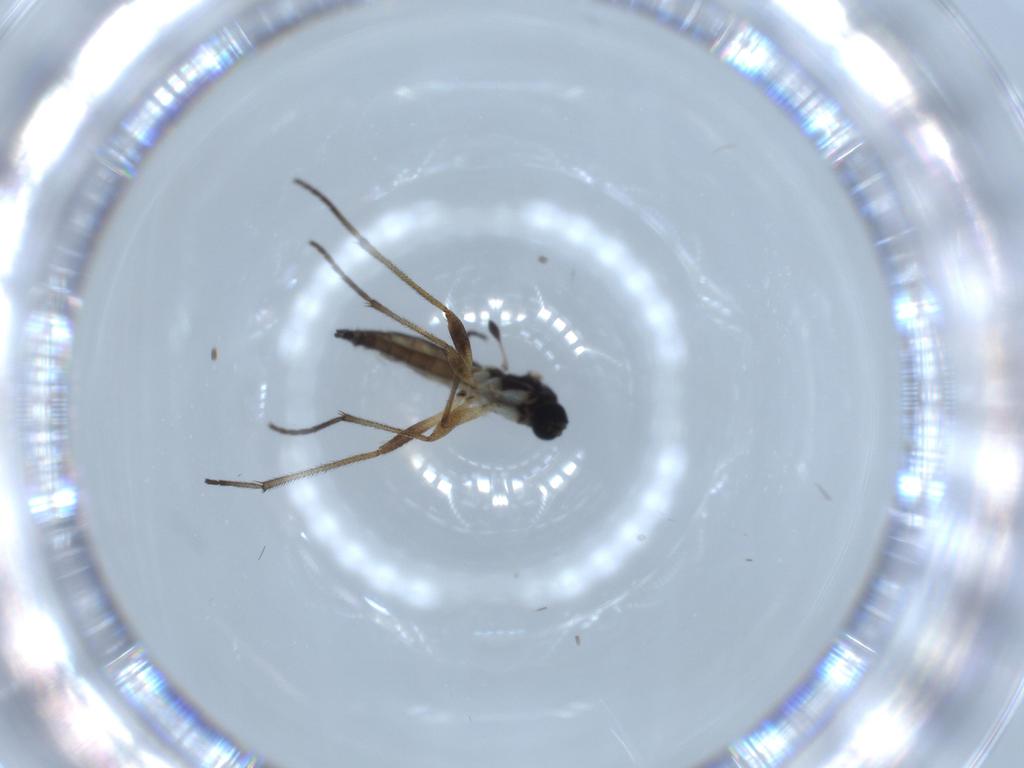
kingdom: Animalia
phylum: Arthropoda
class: Insecta
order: Diptera
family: Sciaridae
